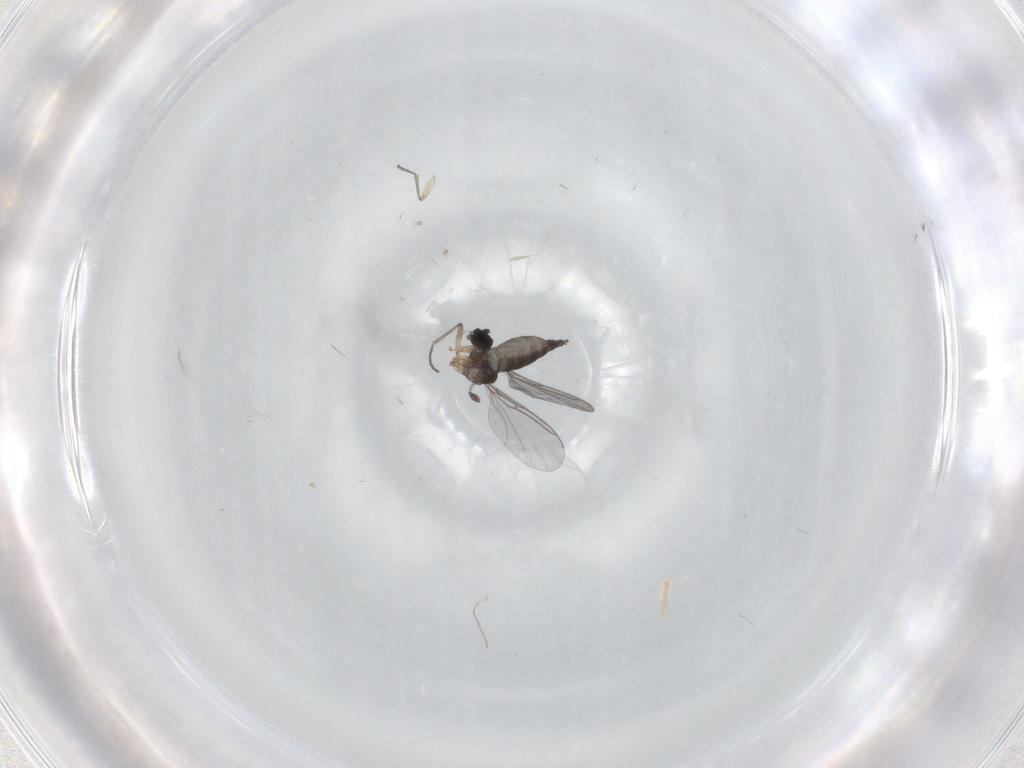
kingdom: Animalia
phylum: Arthropoda
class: Insecta
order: Diptera
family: Sciaridae
